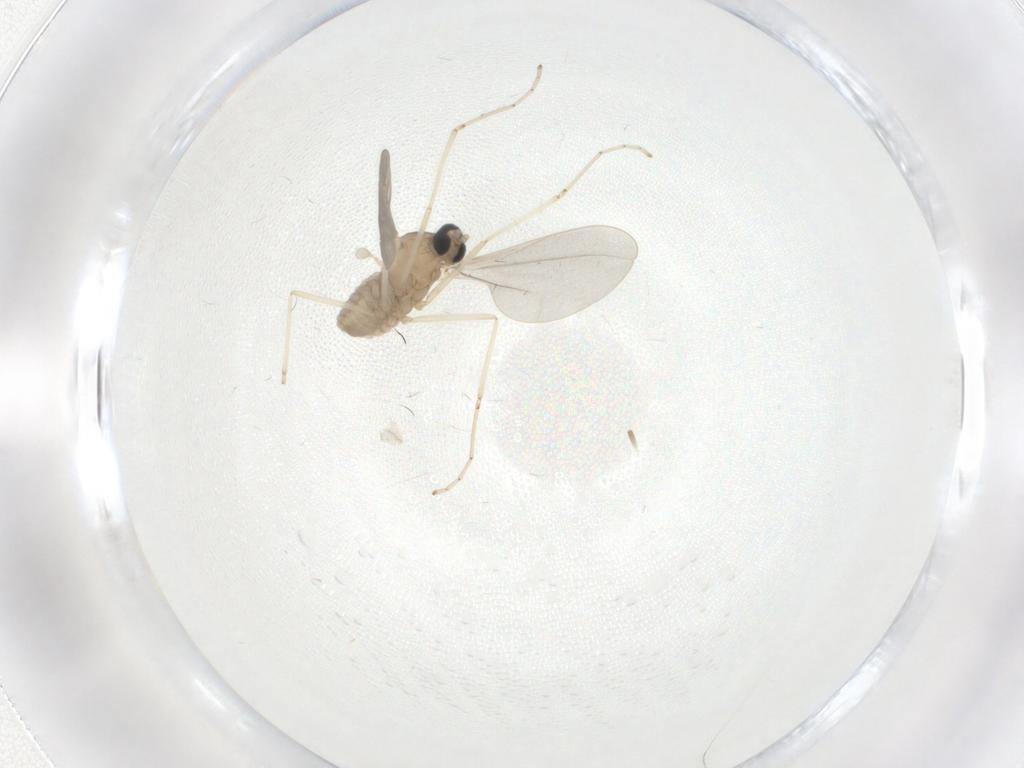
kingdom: Animalia
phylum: Arthropoda
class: Insecta
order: Diptera
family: Cecidomyiidae
